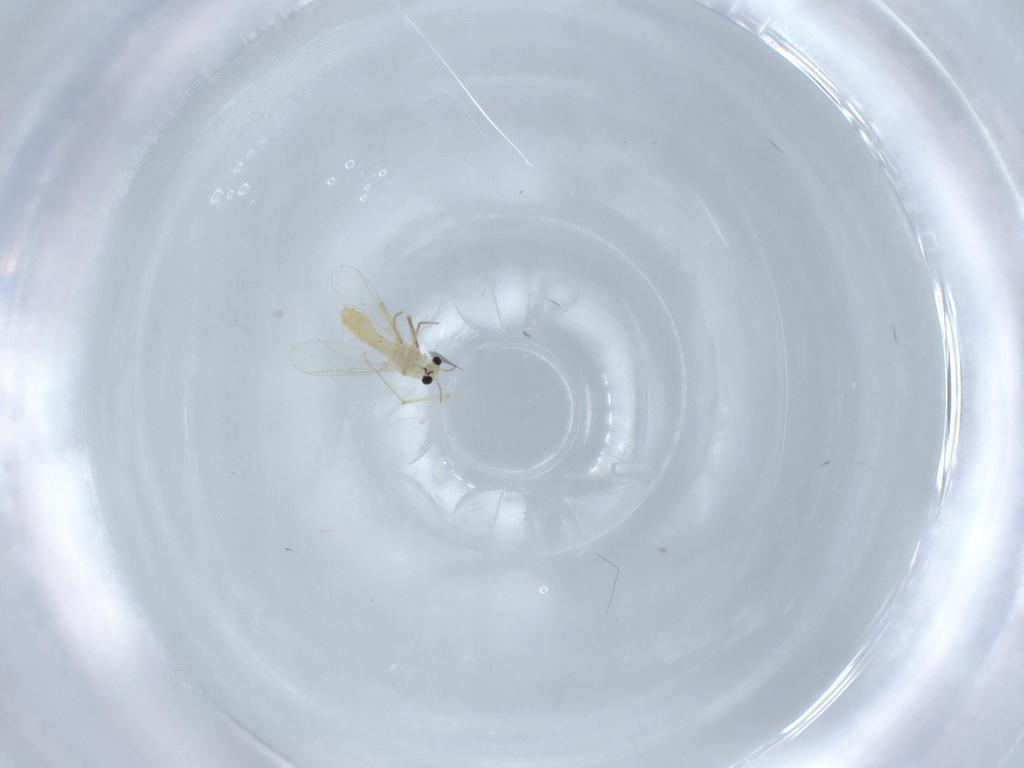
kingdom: Animalia
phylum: Arthropoda
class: Insecta
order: Diptera
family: Chironomidae
